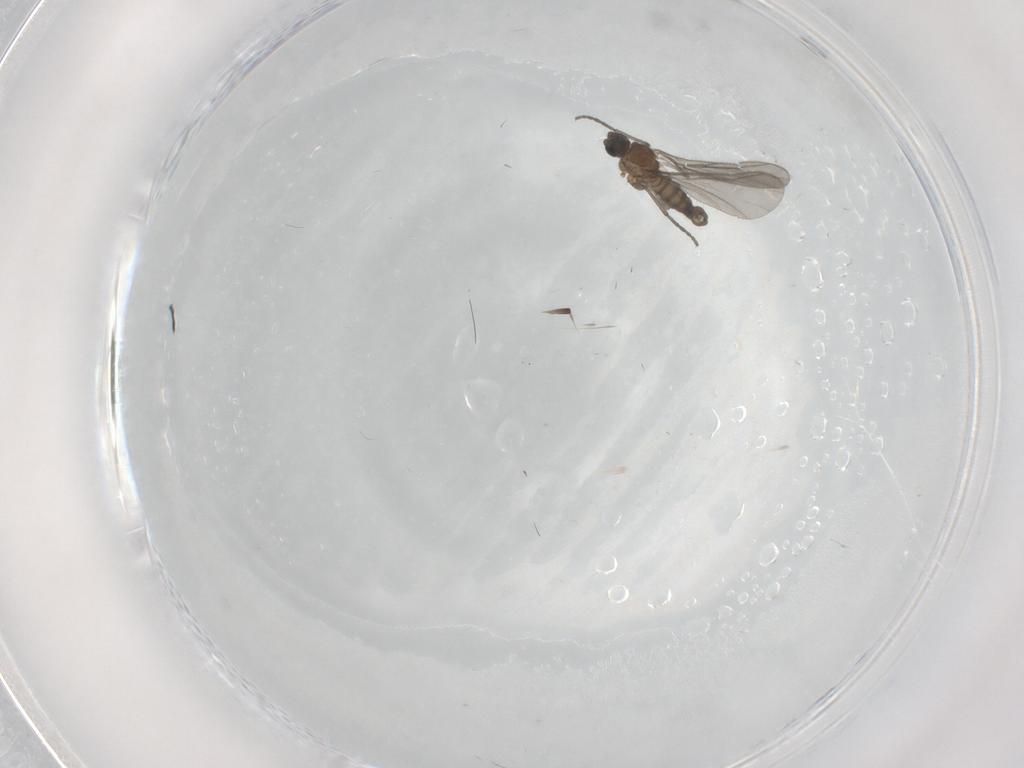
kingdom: Animalia
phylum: Arthropoda
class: Insecta
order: Diptera
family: Sciaridae
